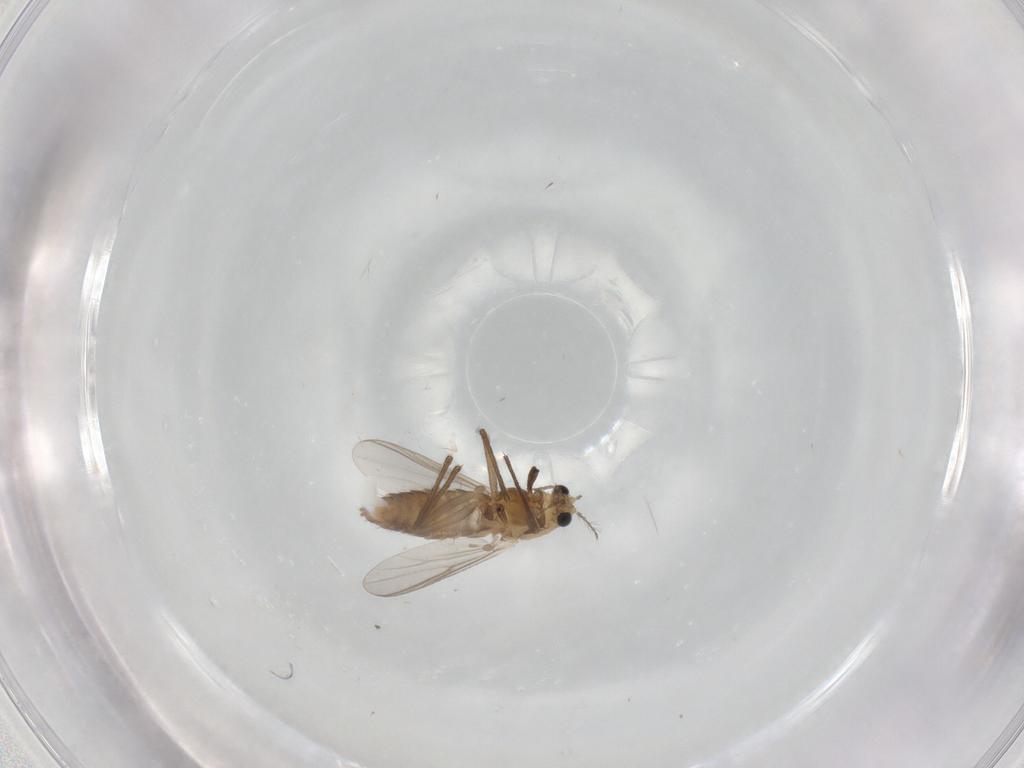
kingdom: Animalia
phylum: Arthropoda
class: Insecta
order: Diptera
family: Chironomidae
